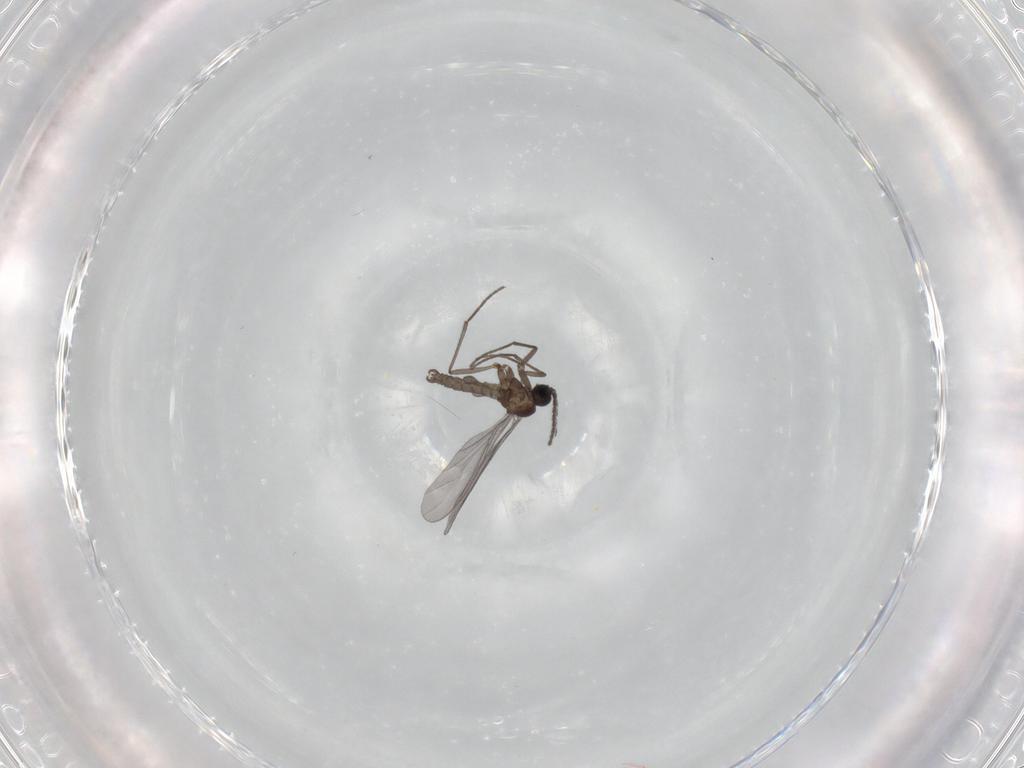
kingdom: Animalia
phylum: Arthropoda
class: Insecta
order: Diptera
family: Sciaridae
